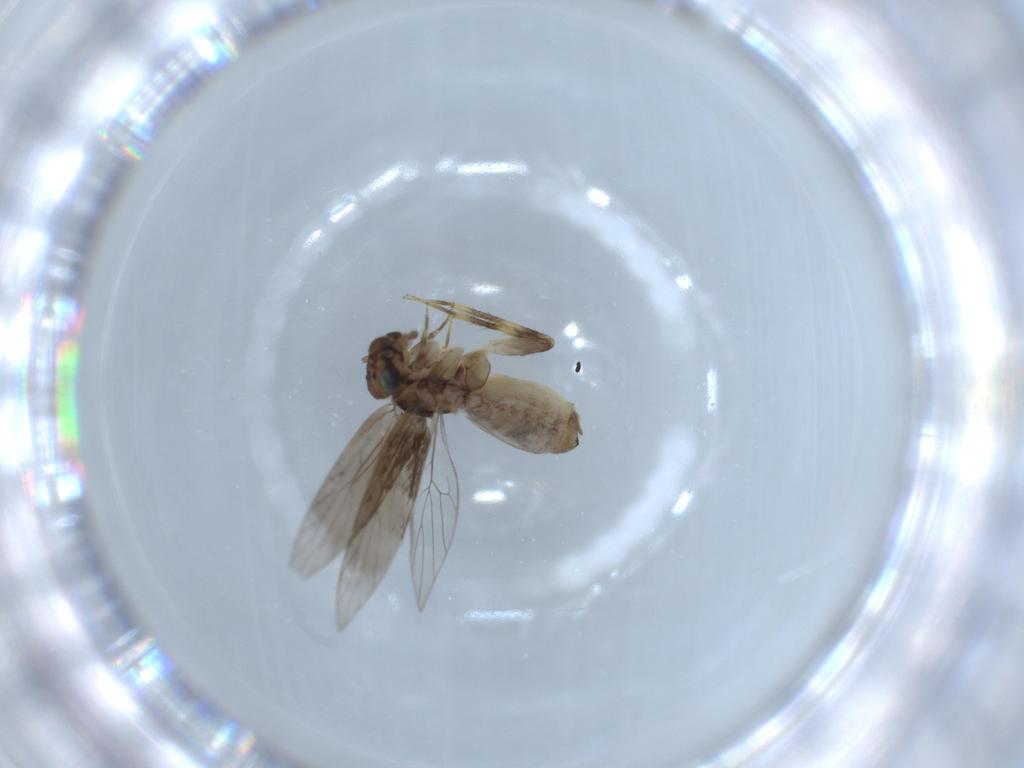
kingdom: Animalia
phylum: Arthropoda
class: Insecta
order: Psocodea
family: Lepidopsocidae
